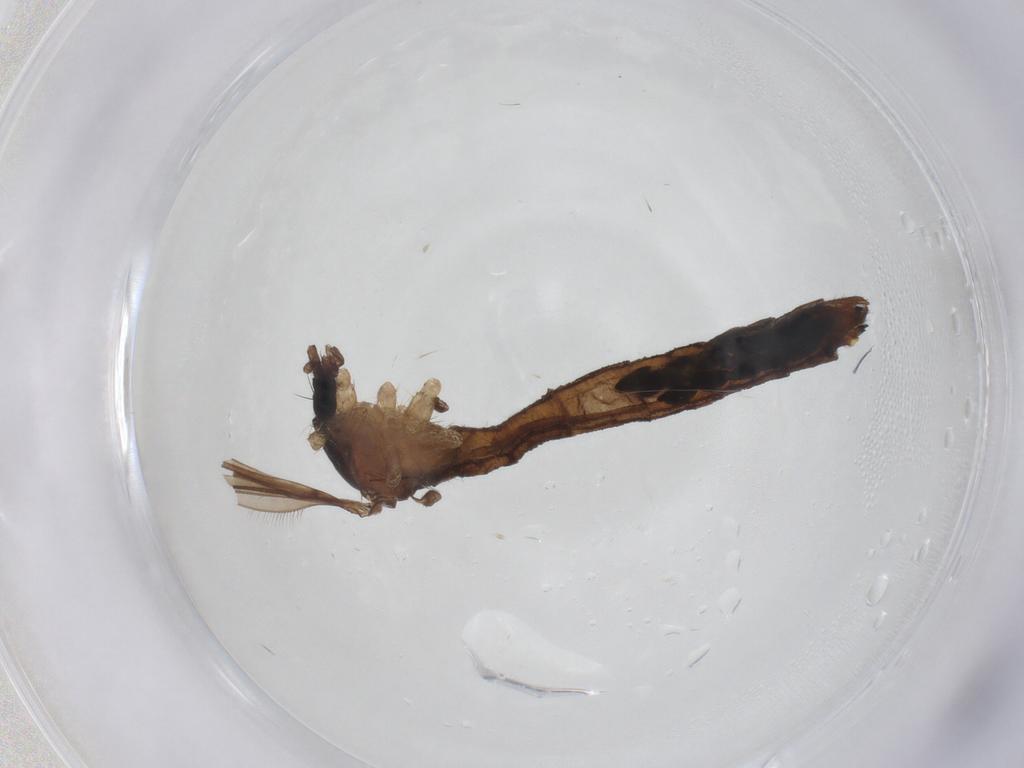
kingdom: Animalia
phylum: Arthropoda
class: Insecta
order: Diptera
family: Limoniidae
